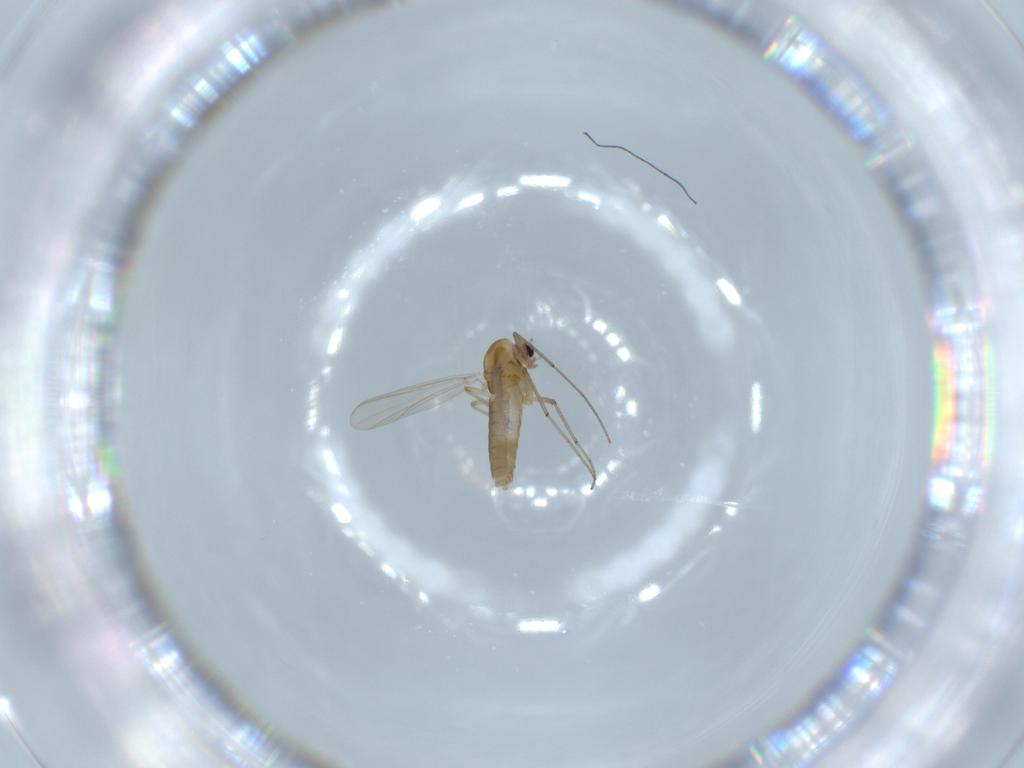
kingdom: Animalia
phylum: Arthropoda
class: Insecta
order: Diptera
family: Chironomidae
